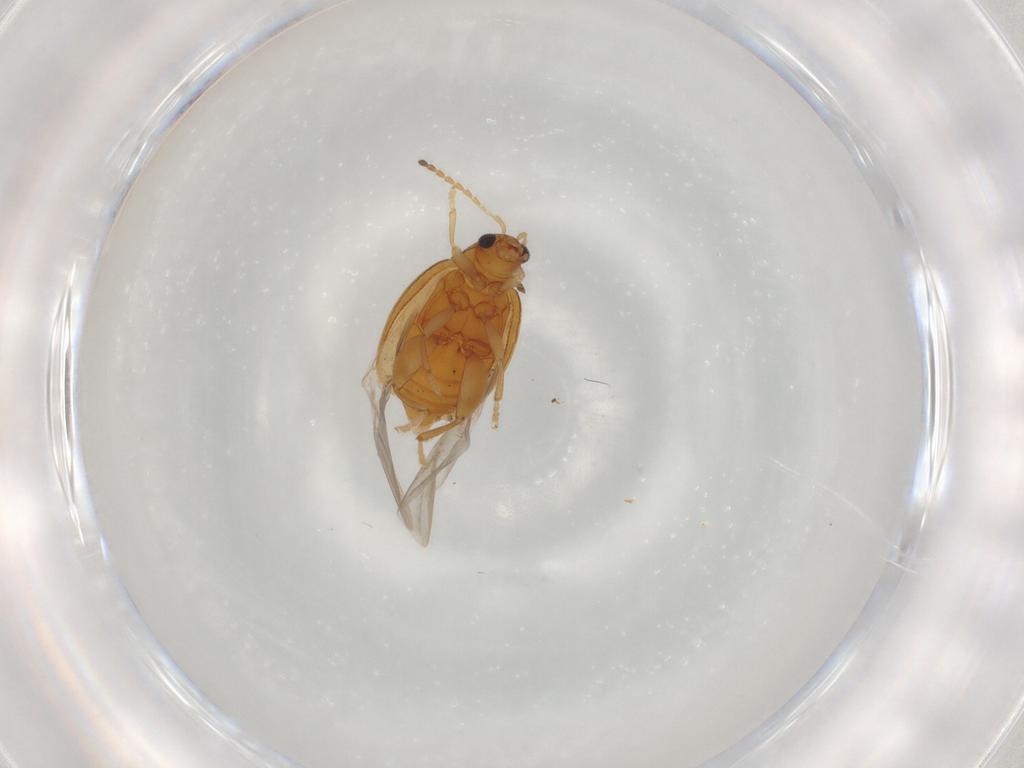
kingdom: Animalia
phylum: Arthropoda
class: Insecta
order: Coleoptera
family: Chrysomelidae
